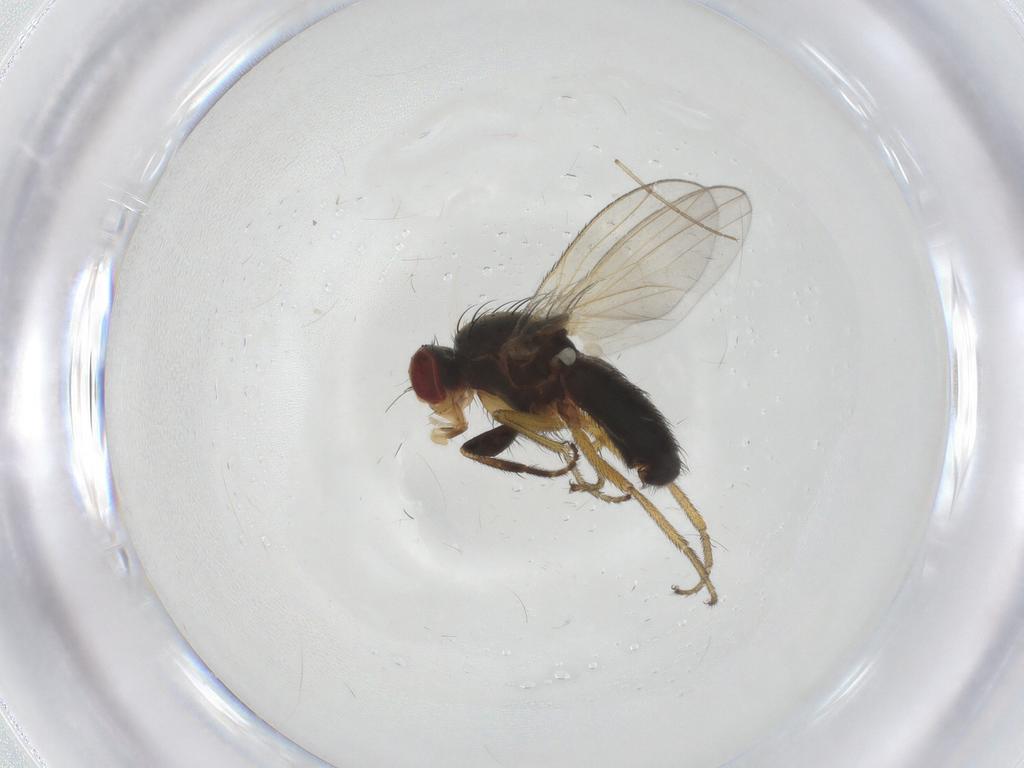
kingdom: Animalia
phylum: Arthropoda
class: Insecta
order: Diptera
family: Heleomyzidae
